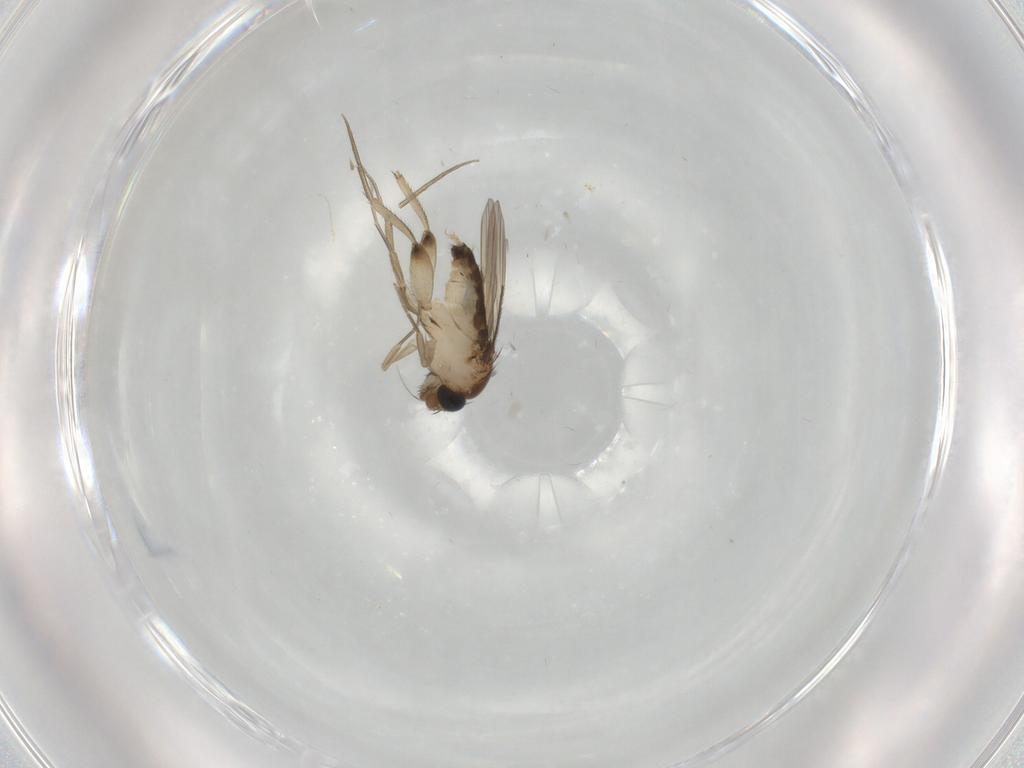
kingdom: Animalia
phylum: Arthropoda
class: Insecta
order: Diptera
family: Phoridae
